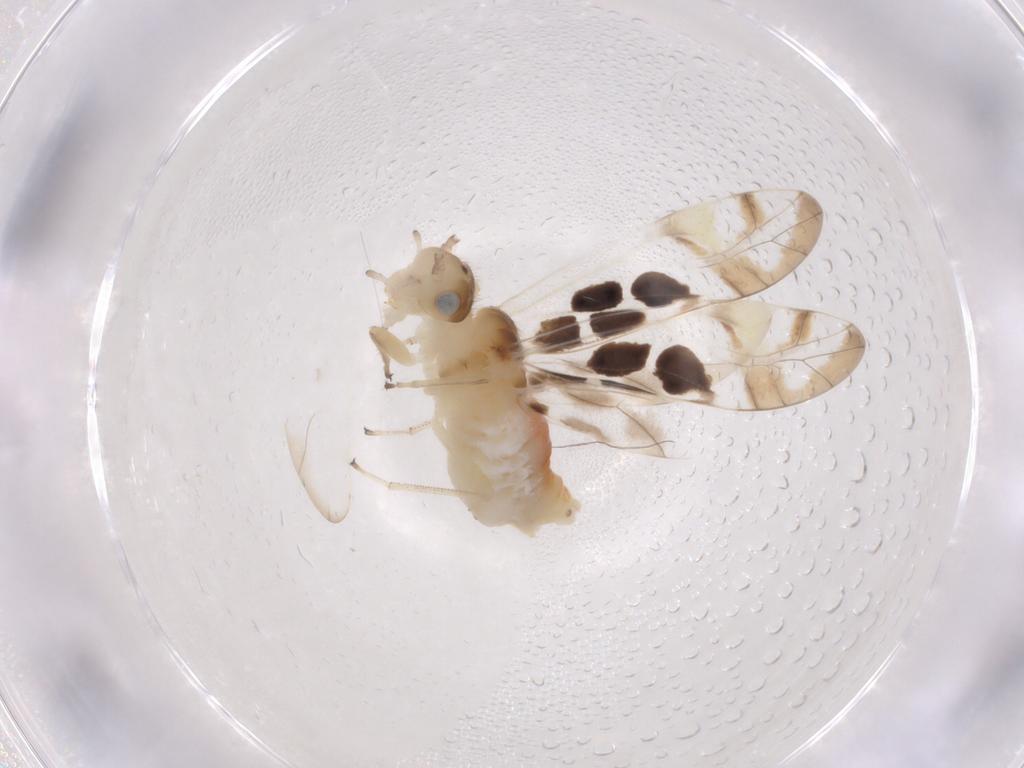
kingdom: Animalia
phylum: Arthropoda
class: Insecta
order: Psocodea
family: Caeciliusidae
